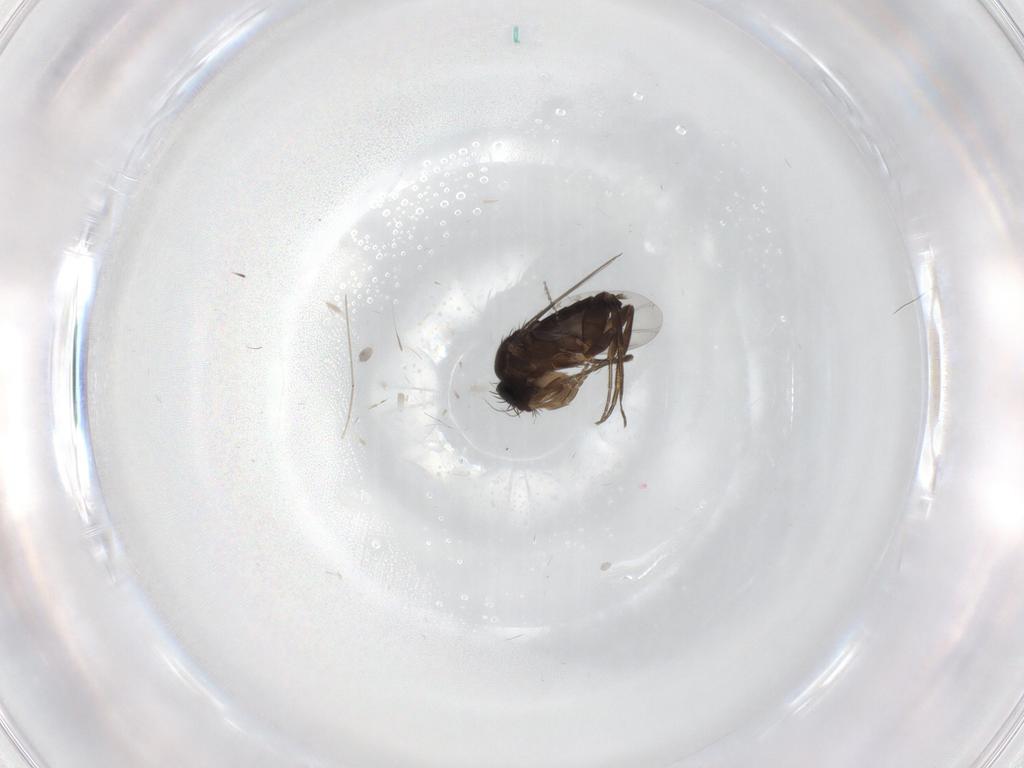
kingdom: Animalia
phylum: Arthropoda
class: Insecta
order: Diptera
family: Phoridae
